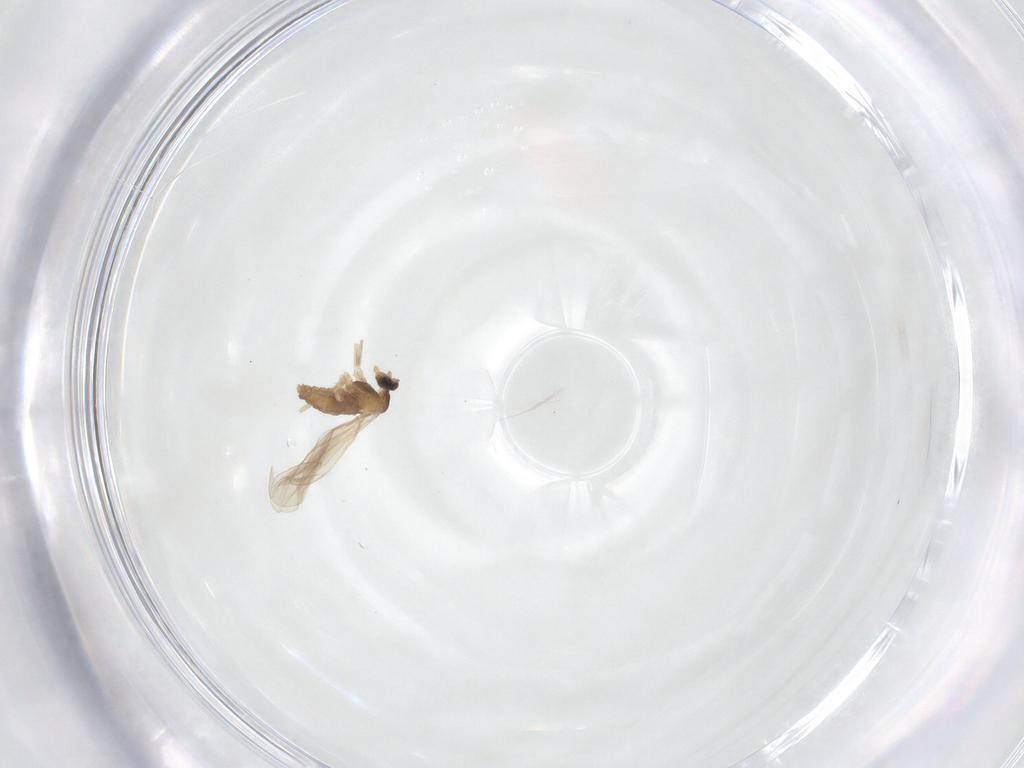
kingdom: Animalia
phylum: Arthropoda
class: Insecta
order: Diptera
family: Cecidomyiidae
